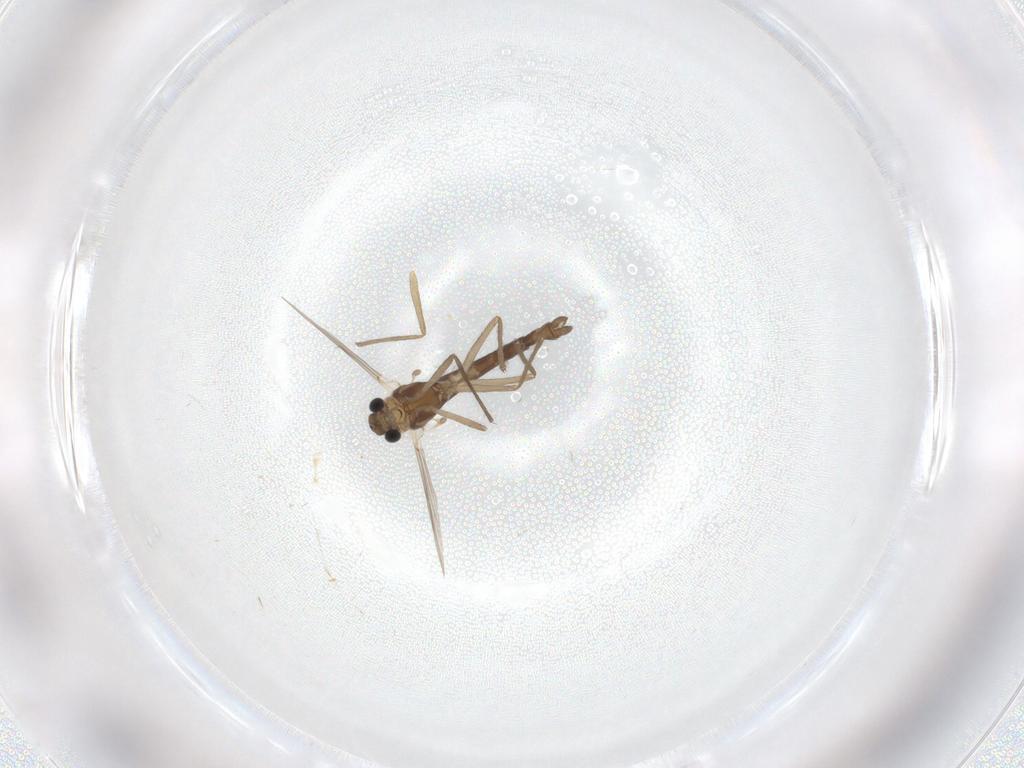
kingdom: Animalia
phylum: Arthropoda
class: Insecta
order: Diptera
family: Chironomidae
